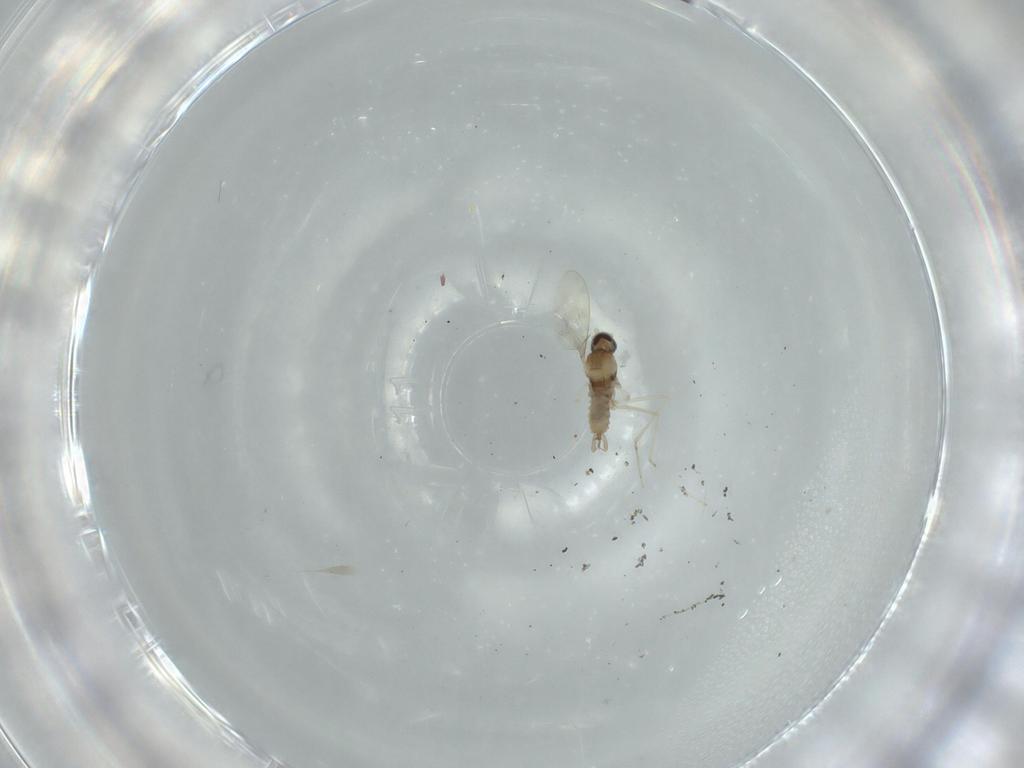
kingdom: Animalia
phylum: Arthropoda
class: Insecta
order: Diptera
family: Sphaeroceridae
